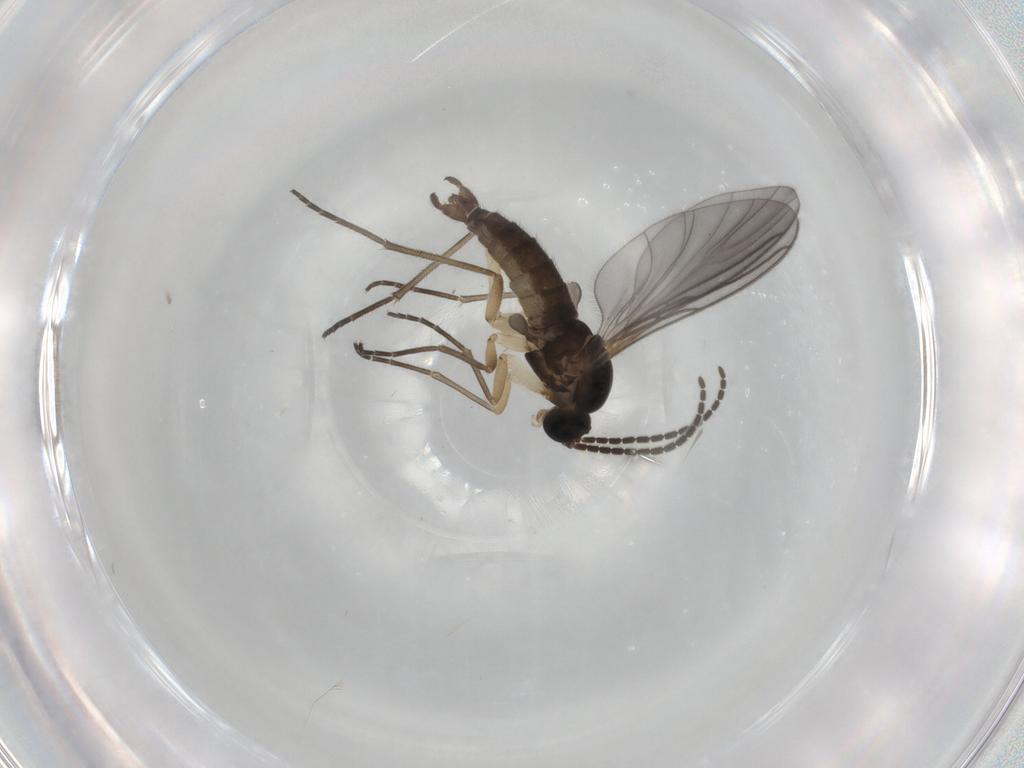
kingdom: Animalia
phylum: Arthropoda
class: Insecta
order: Diptera
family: Sciaridae
